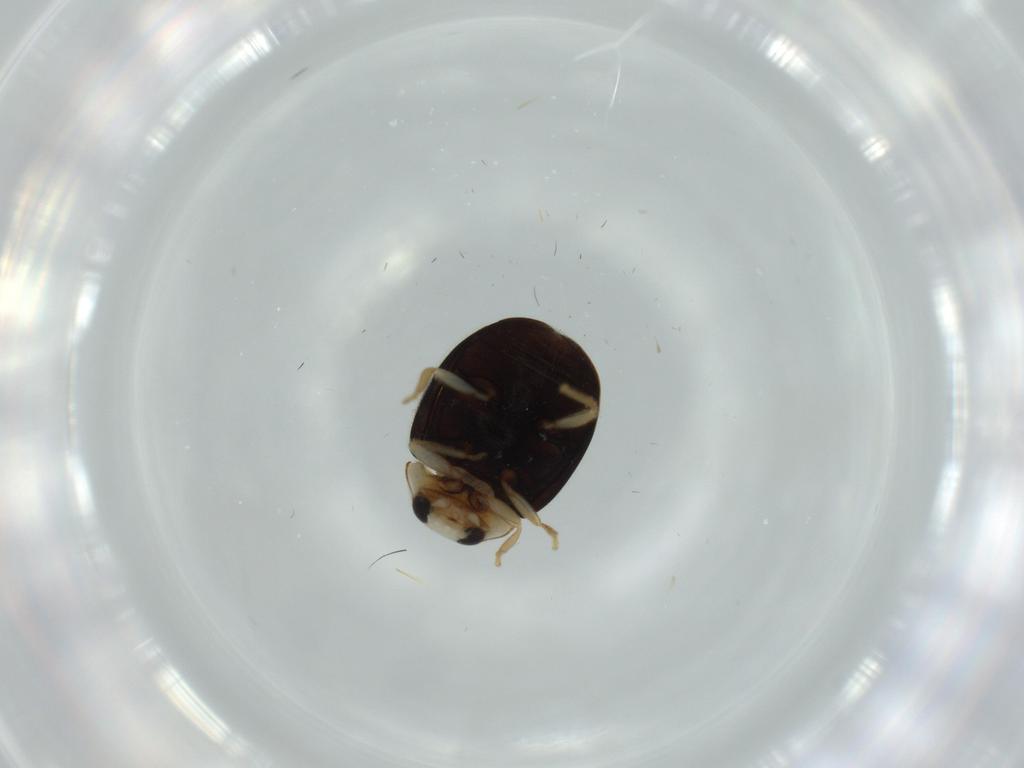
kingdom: Animalia
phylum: Arthropoda
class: Insecta
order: Coleoptera
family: Coccinellidae
